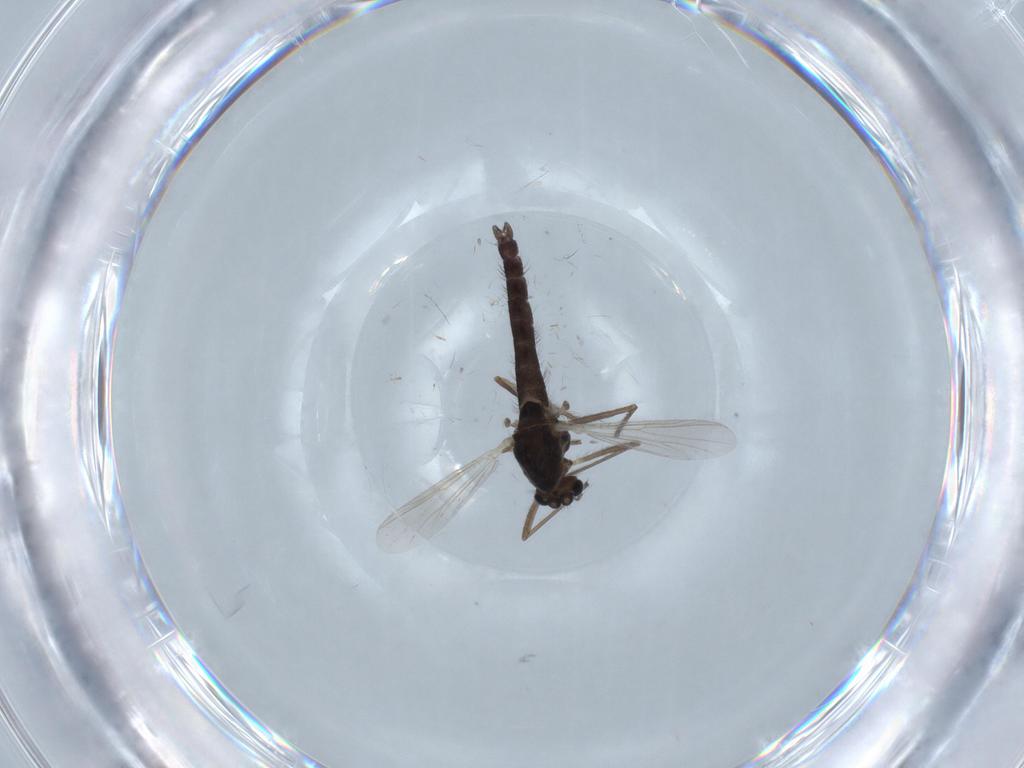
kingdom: Animalia
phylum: Arthropoda
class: Insecta
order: Diptera
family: Chironomidae
